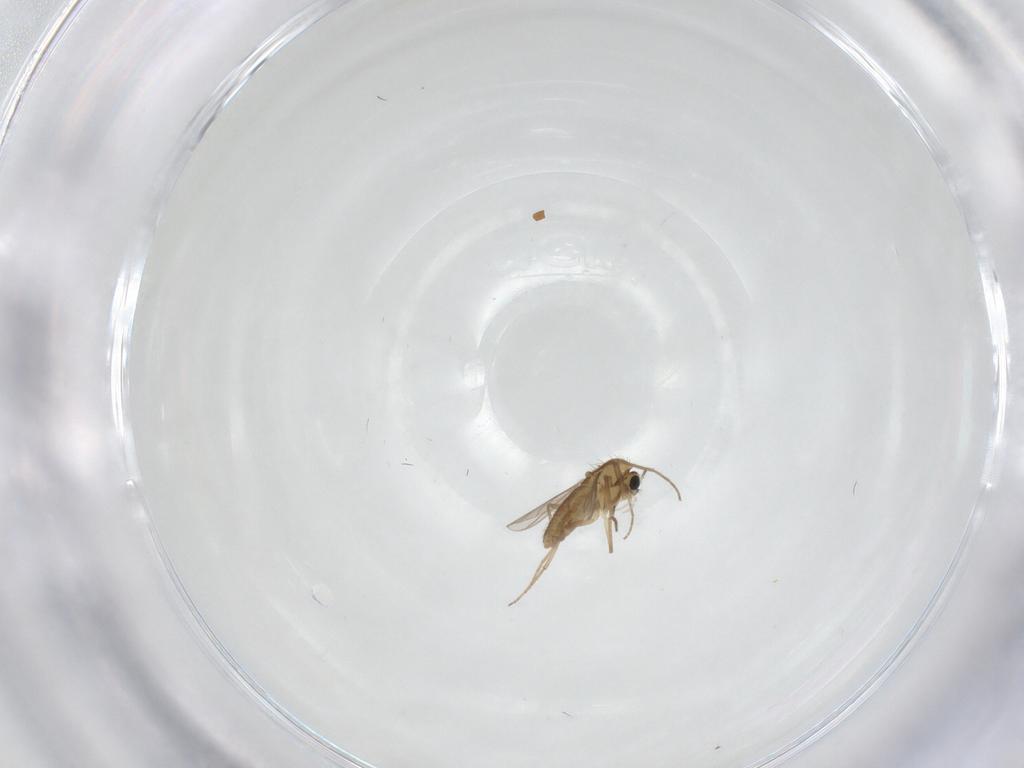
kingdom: Animalia
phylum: Arthropoda
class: Insecta
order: Diptera
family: Chironomidae
